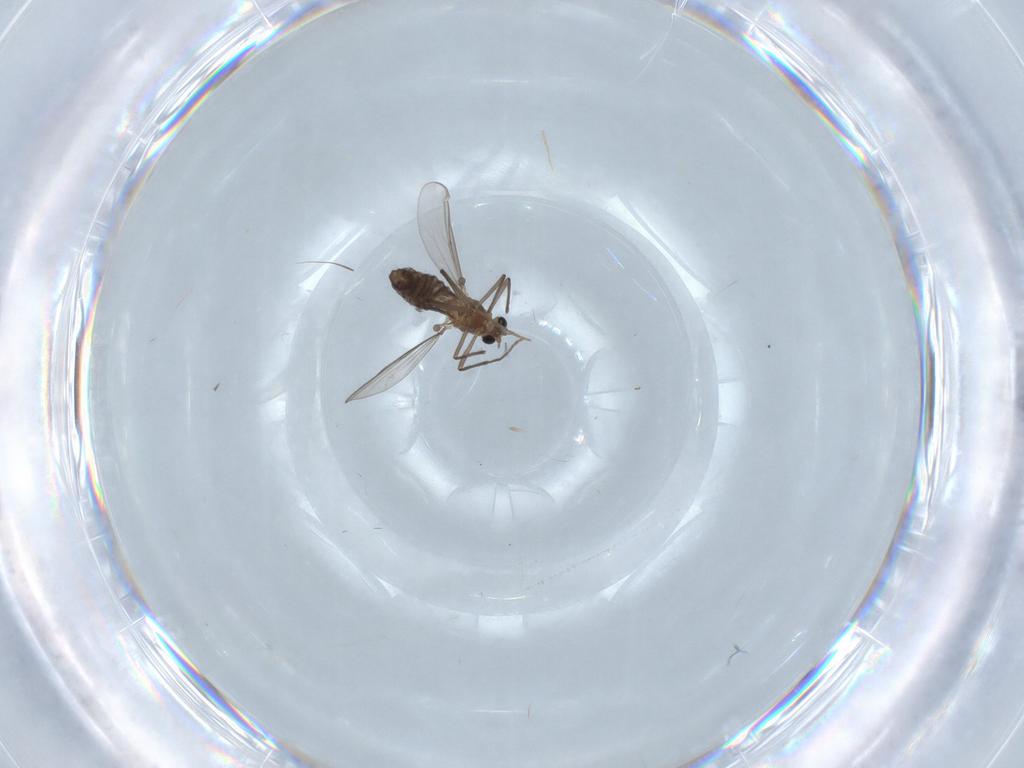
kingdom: Animalia
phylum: Arthropoda
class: Insecta
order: Diptera
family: Chironomidae
